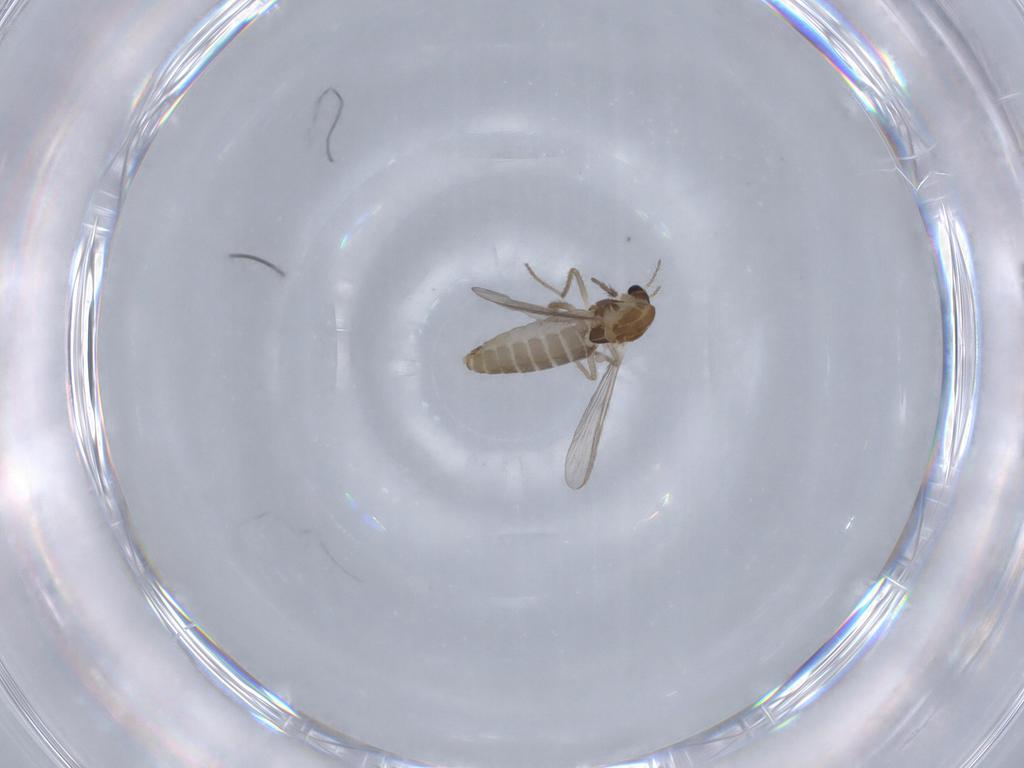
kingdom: Animalia
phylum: Arthropoda
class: Insecta
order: Diptera
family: Chironomidae
